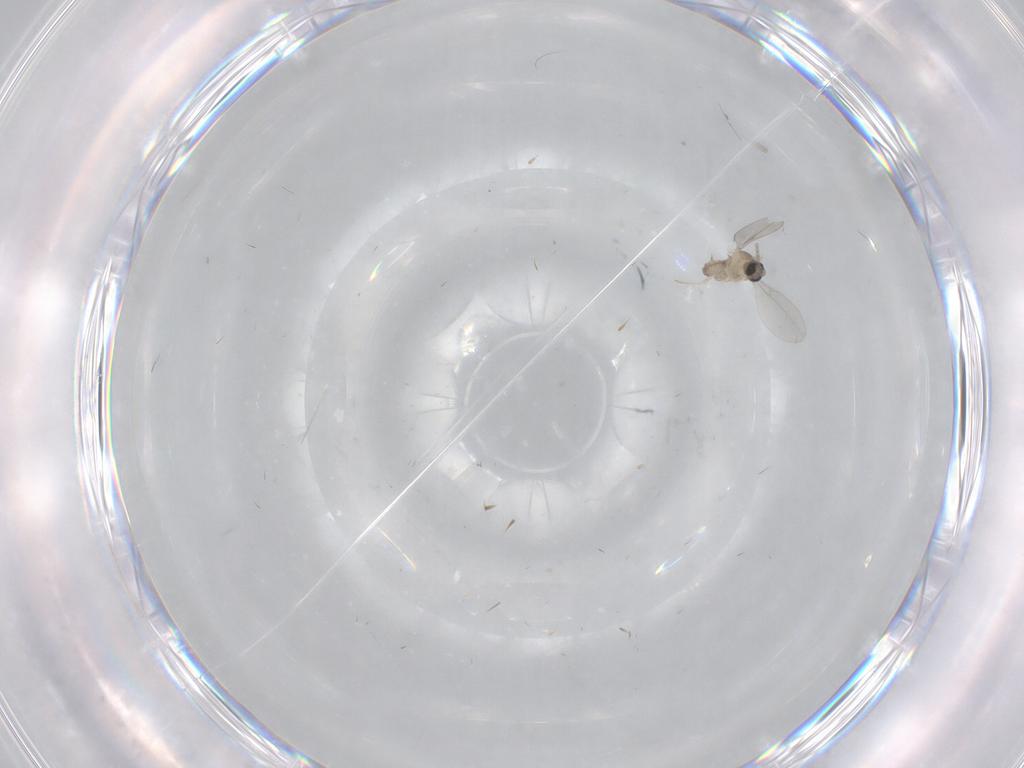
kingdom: Animalia
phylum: Arthropoda
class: Insecta
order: Diptera
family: Cecidomyiidae
